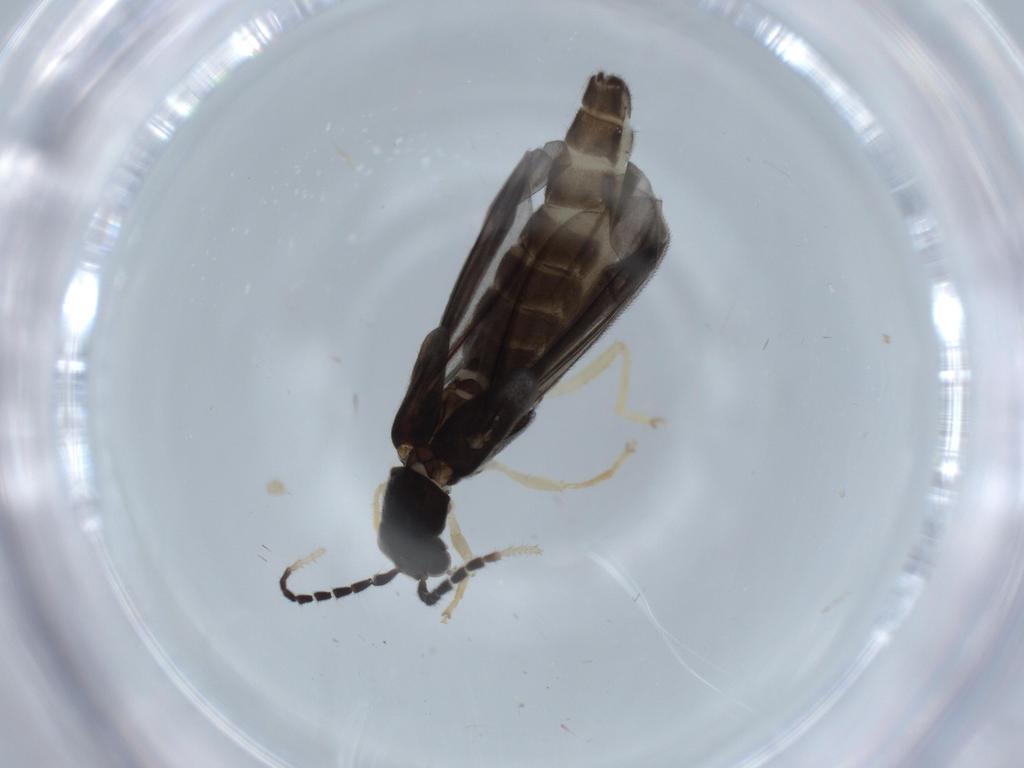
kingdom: Animalia
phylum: Arthropoda
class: Insecta
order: Coleoptera
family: Cantharidae
